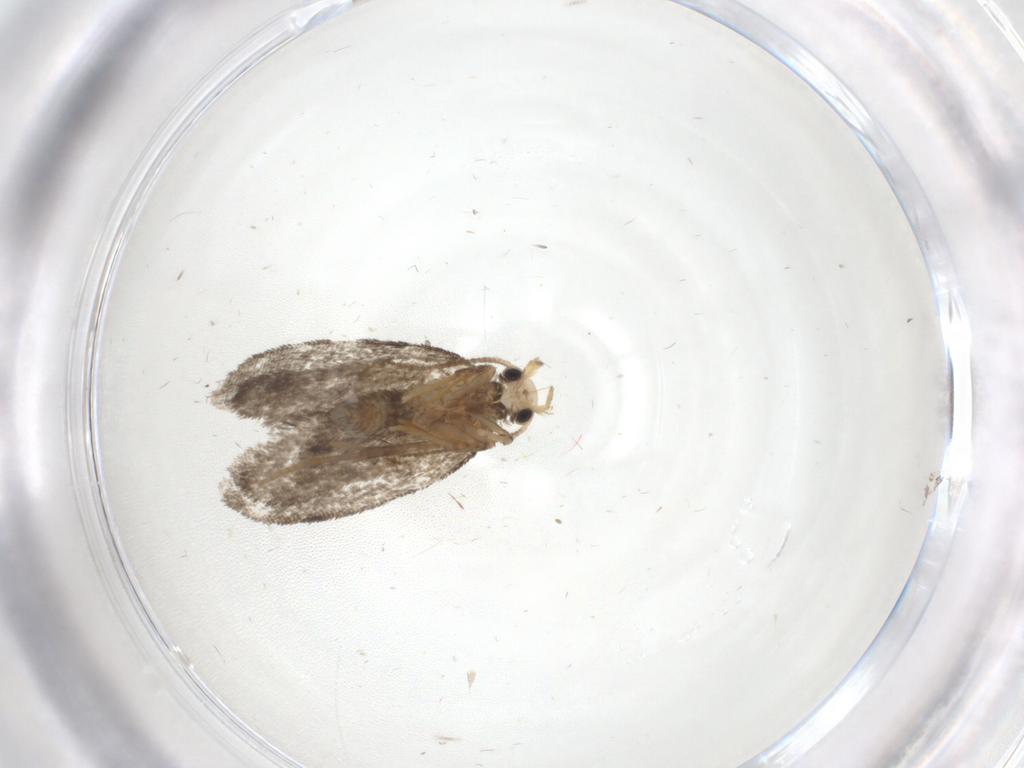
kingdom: Animalia
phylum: Arthropoda
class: Insecta
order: Lepidoptera
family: Psychidae
